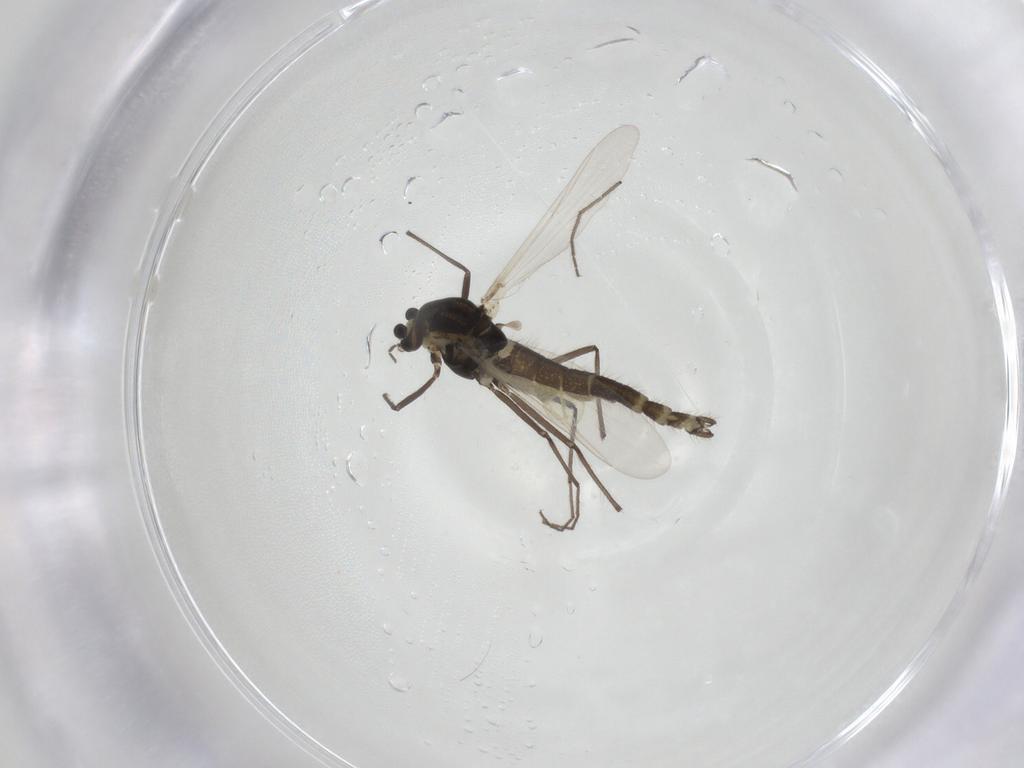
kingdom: Animalia
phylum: Arthropoda
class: Insecta
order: Diptera
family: Chironomidae
